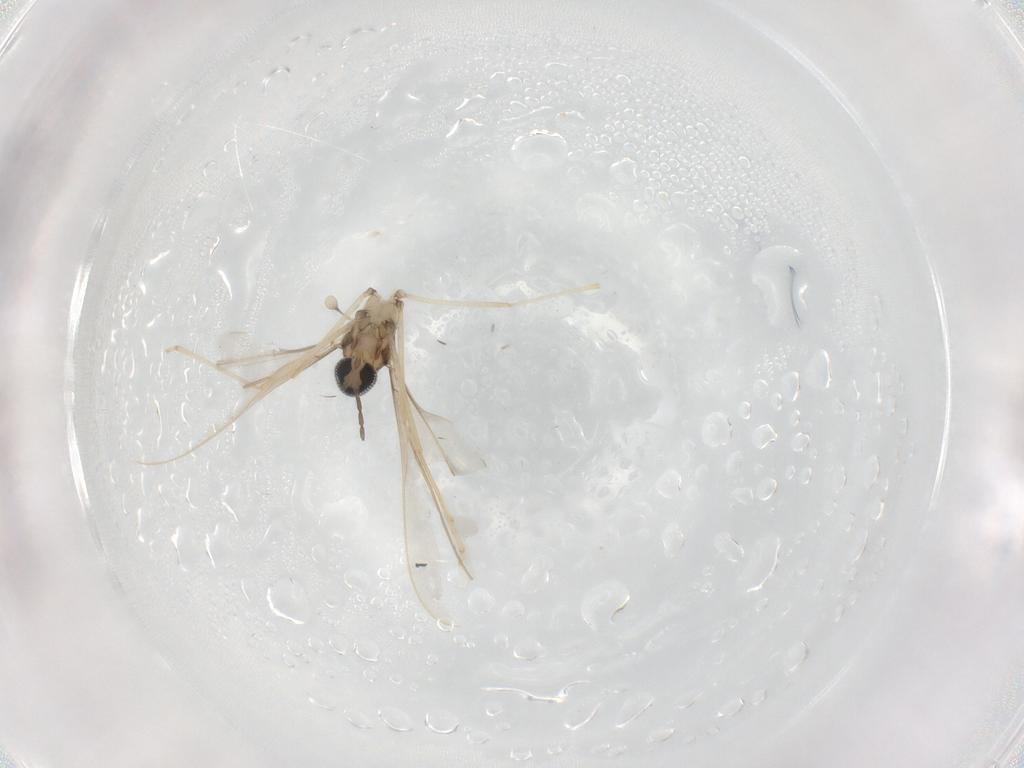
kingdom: Animalia
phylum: Arthropoda
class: Insecta
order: Diptera
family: Cecidomyiidae
